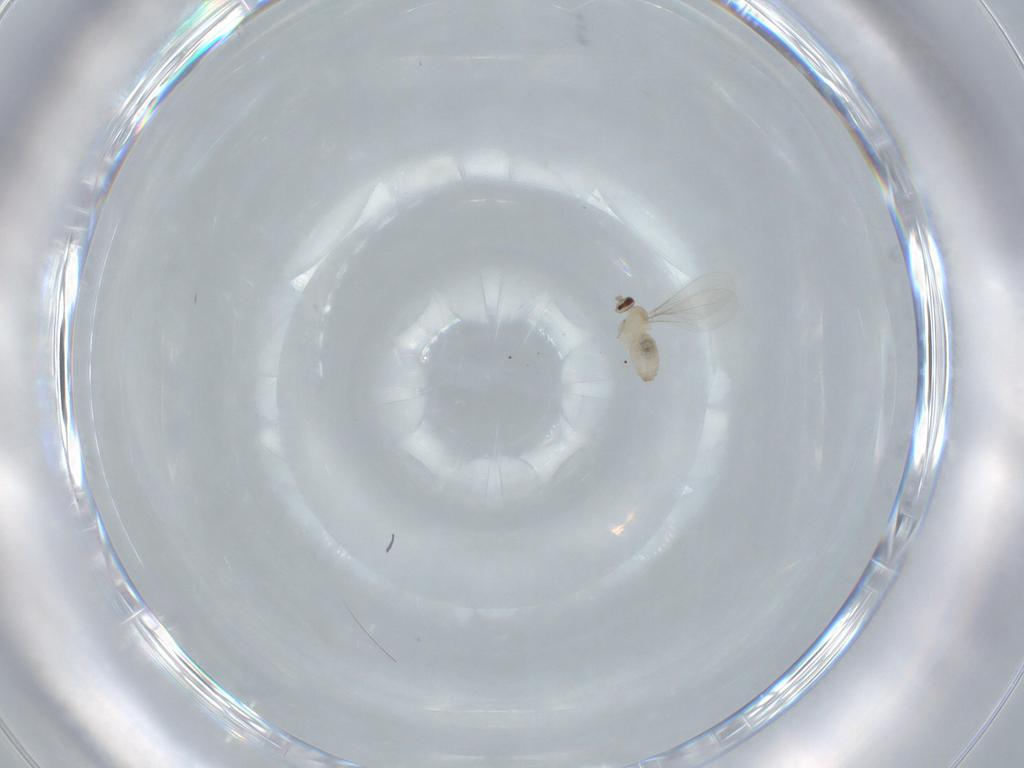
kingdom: Animalia
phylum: Arthropoda
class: Insecta
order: Diptera
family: Cecidomyiidae
